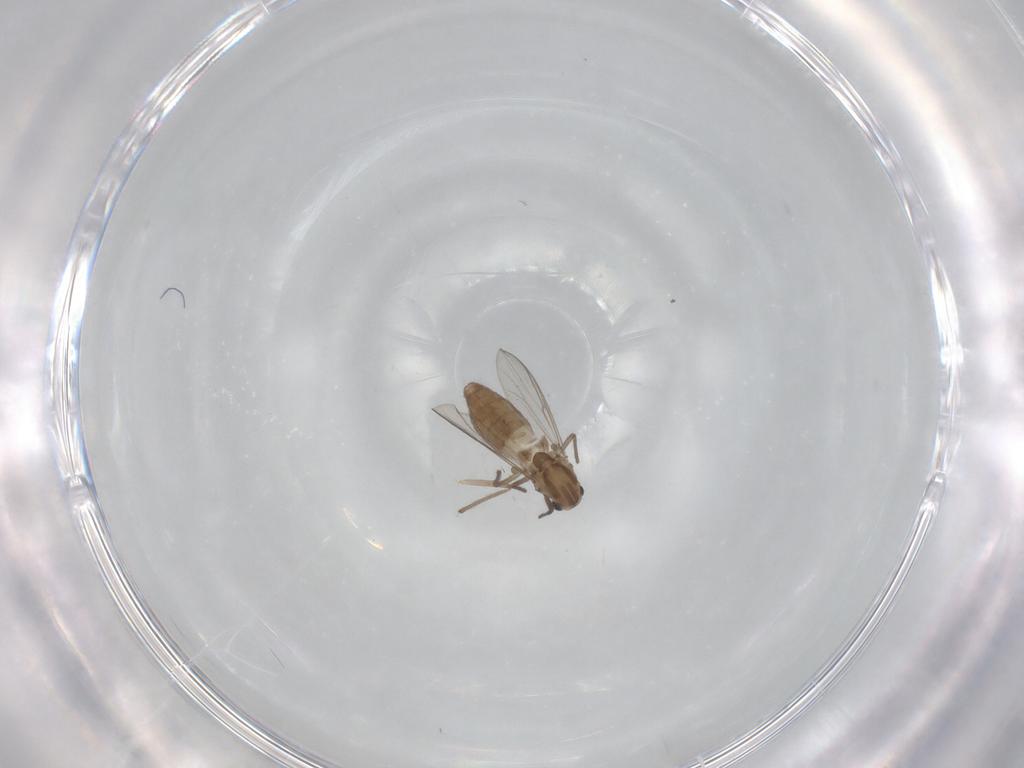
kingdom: Animalia
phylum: Arthropoda
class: Insecta
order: Diptera
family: Chironomidae
